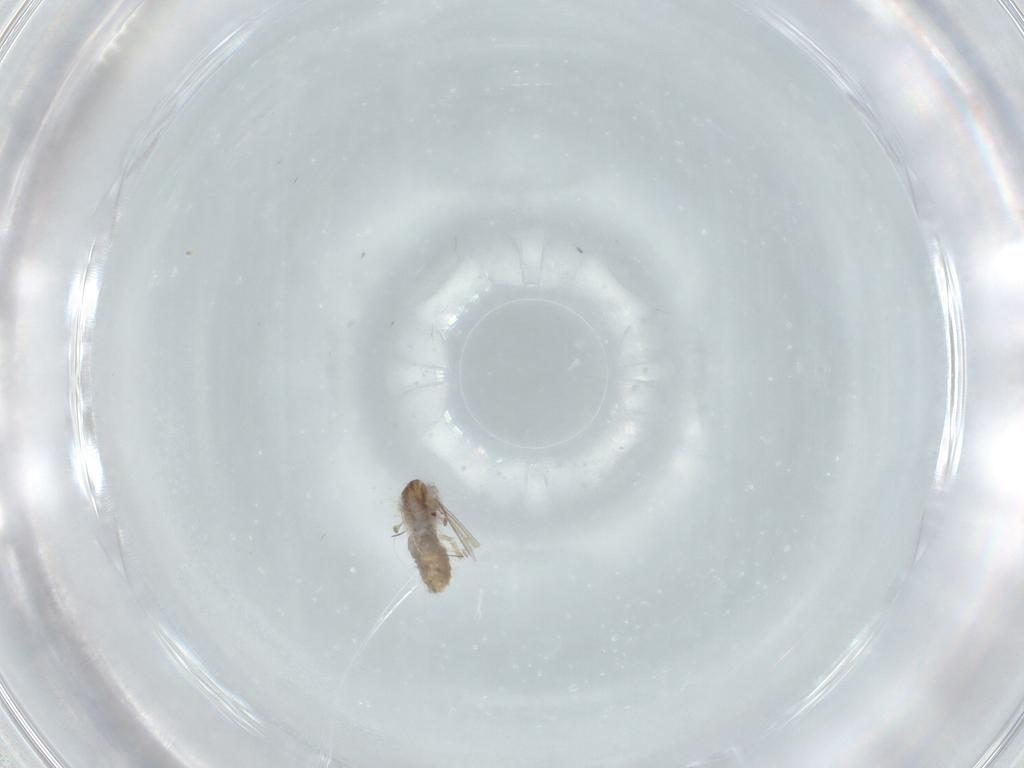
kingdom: Animalia
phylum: Arthropoda
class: Insecta
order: Diptera
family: Chironomidae
